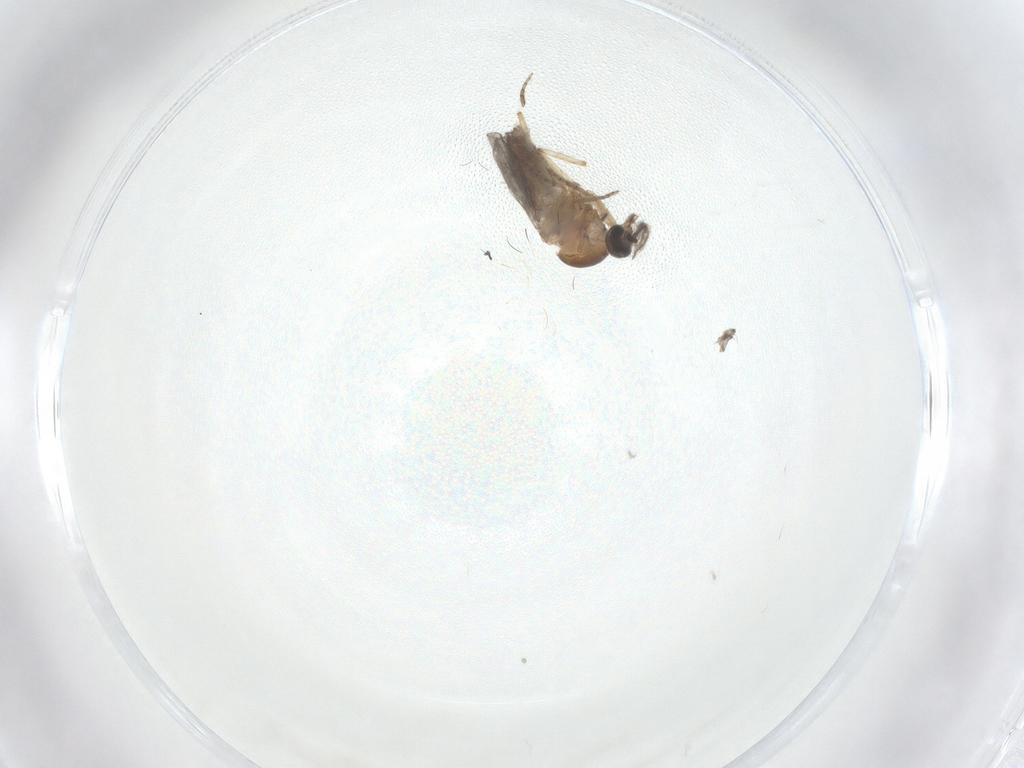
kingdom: Animalia
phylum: Arthropoda
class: Insecta
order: Diptera
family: Ceratopogonidae
